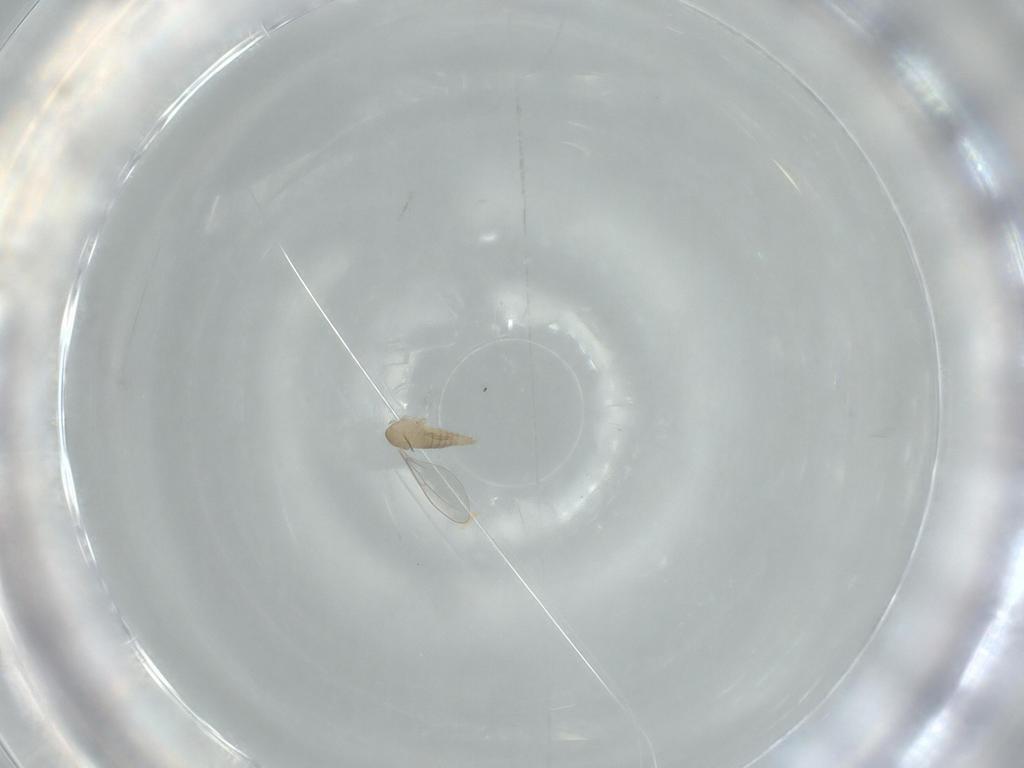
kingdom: Animalia
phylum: Arthropoda
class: Insecta
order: Diptera
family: Cecidomyiidae
